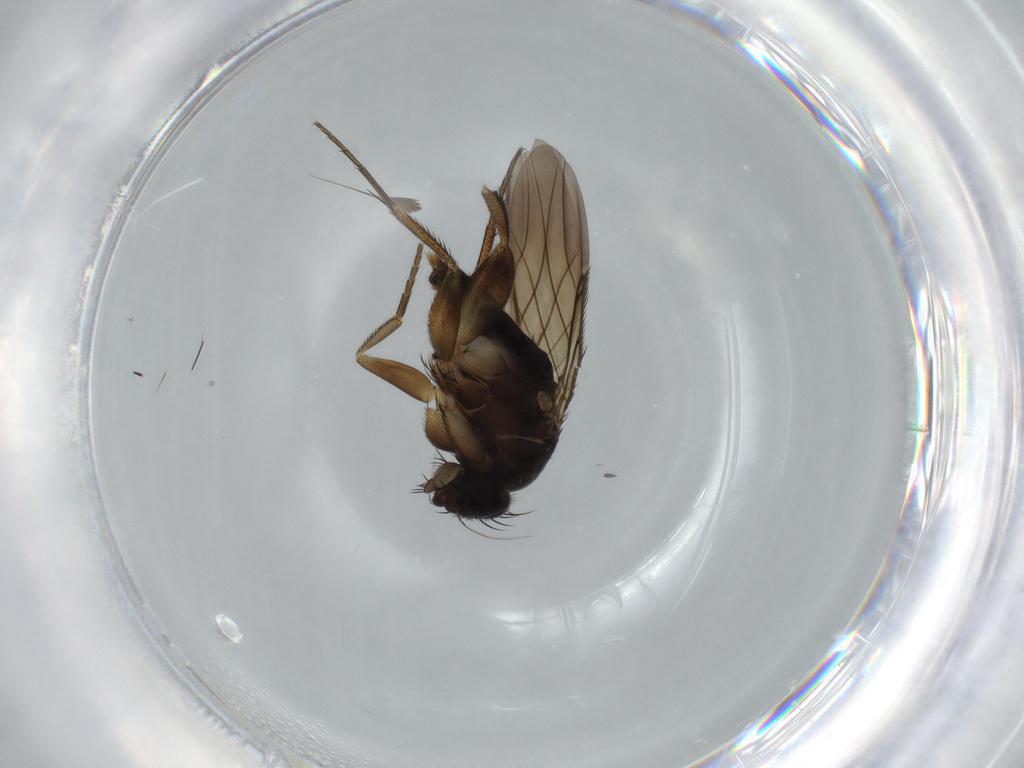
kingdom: Animalia
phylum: Arthropoda
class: Insecta
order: Diptera
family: Phoridae
